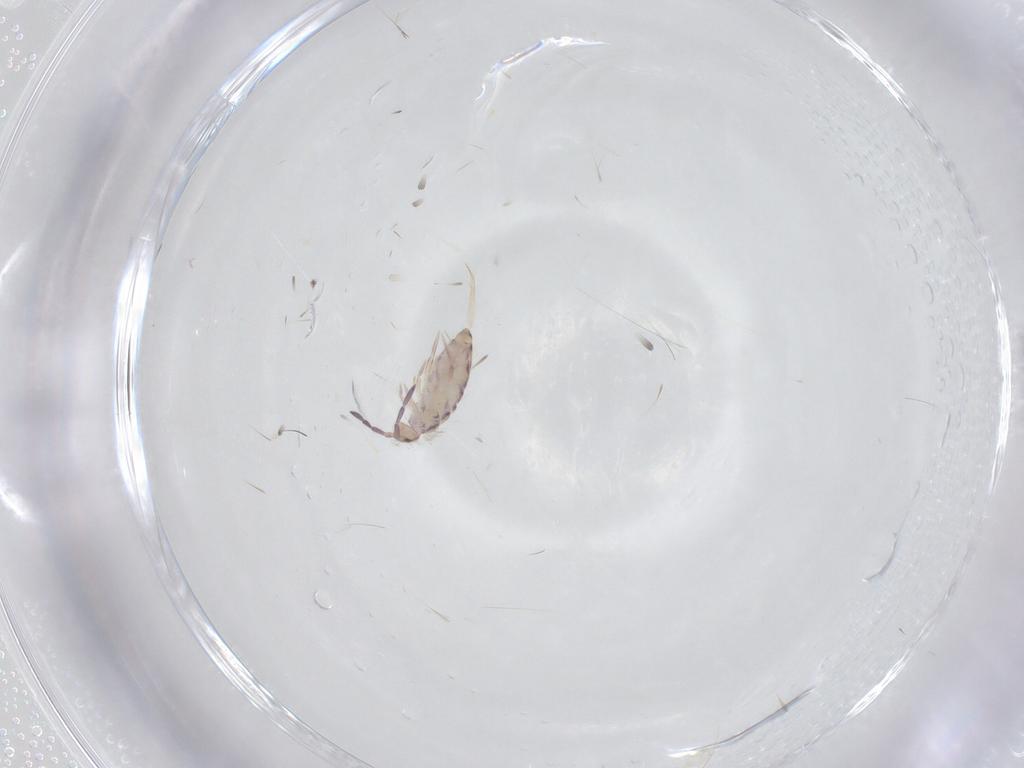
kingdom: Animalia
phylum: Arthropoda
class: Collembola
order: Entomobryomorpha
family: Entomobryidae
